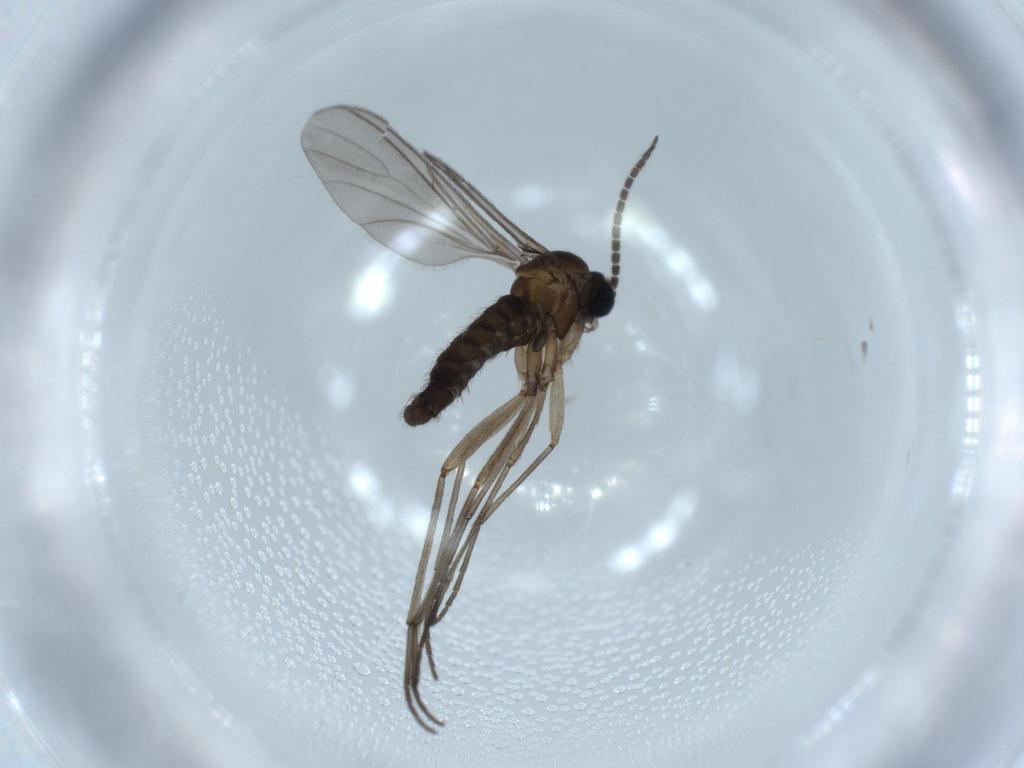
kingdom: Animalia
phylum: Arthropoda
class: Insecta
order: Diptera
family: Sciaridae
